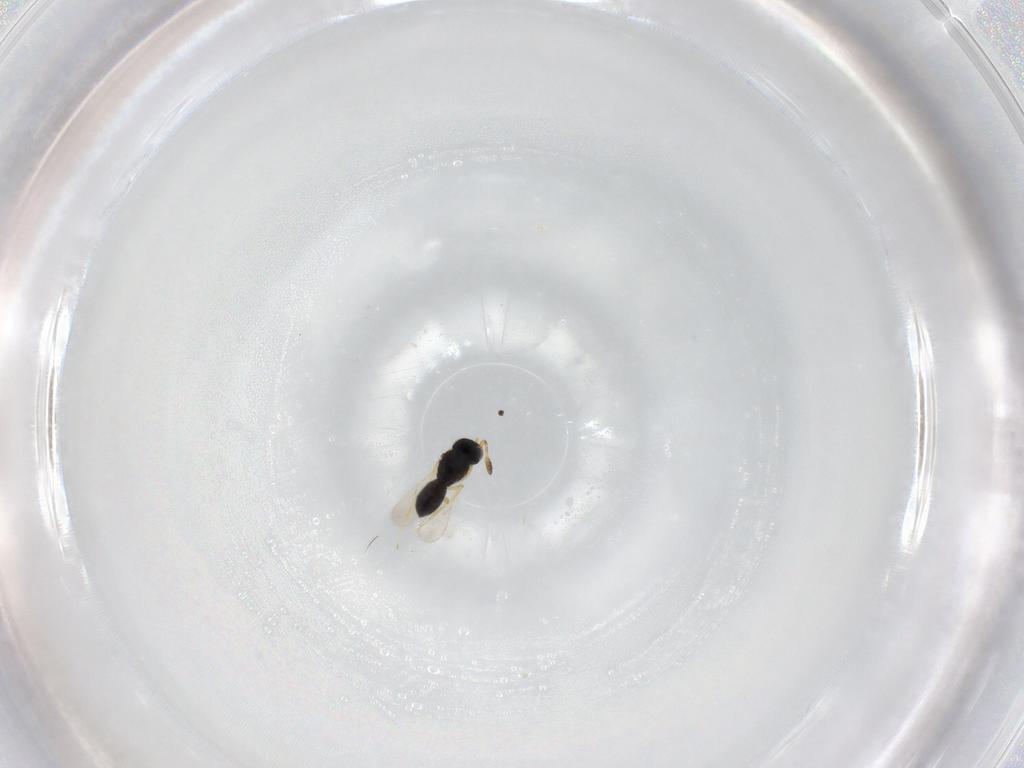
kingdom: Animalia
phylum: Arthropoda
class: Insecta
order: Hymenoptera
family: Scelionidae
